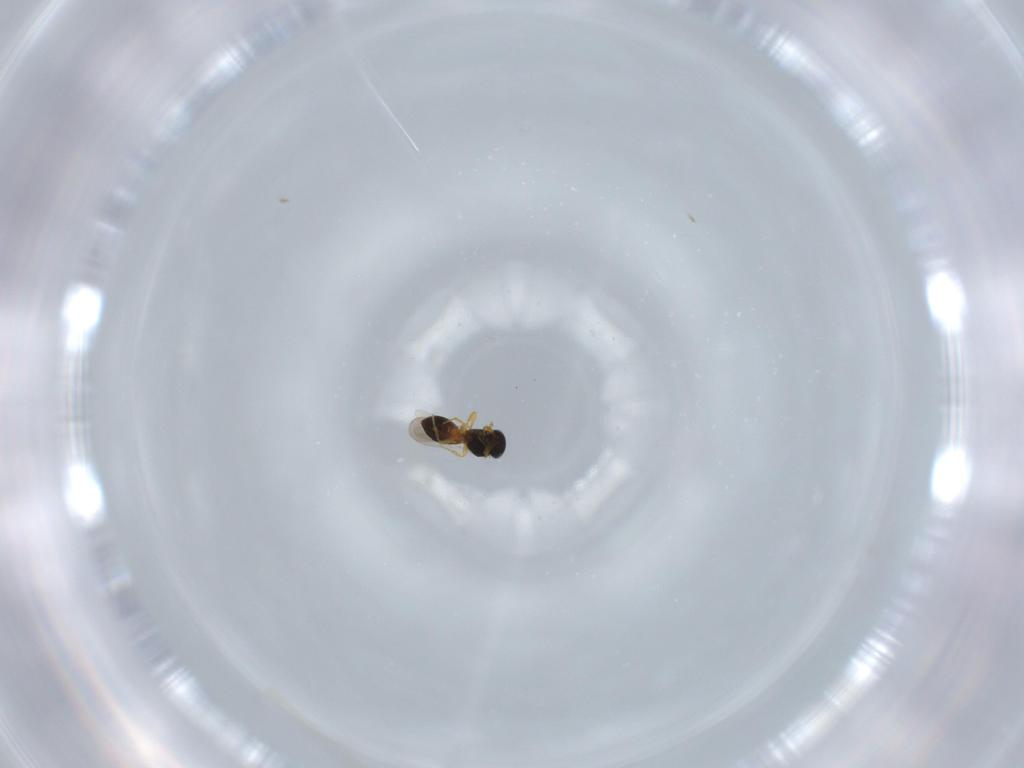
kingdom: Animalia
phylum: Arthropoda
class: Insecta
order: Hymenoptera
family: Platygastridae
